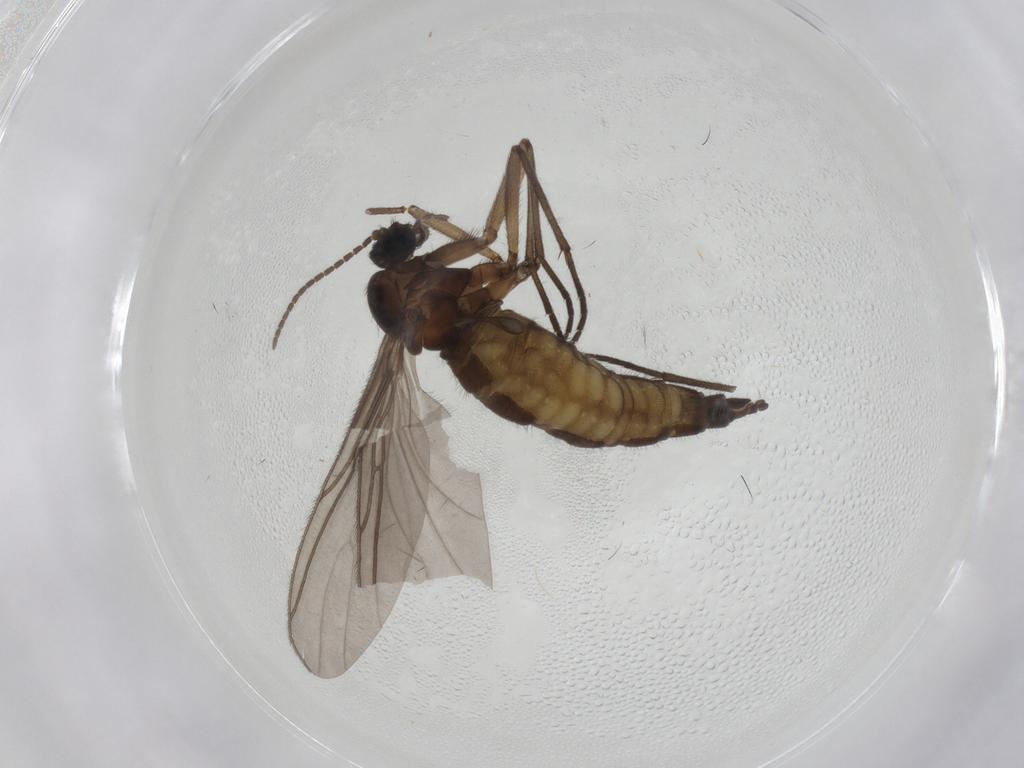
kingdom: Animalia
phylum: Arthropoda
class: Insecta
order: Diptera
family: Sciaridae
